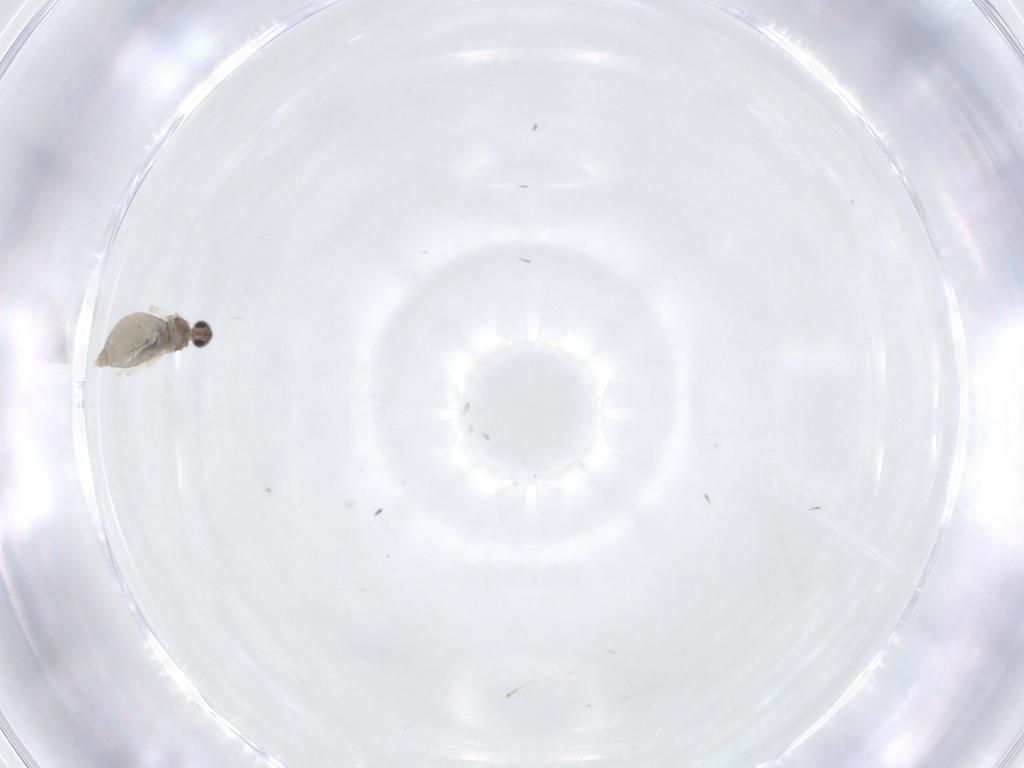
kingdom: Animalia
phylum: Arthropoda
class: Insecta
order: Diptera
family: Cecidomyiidae
